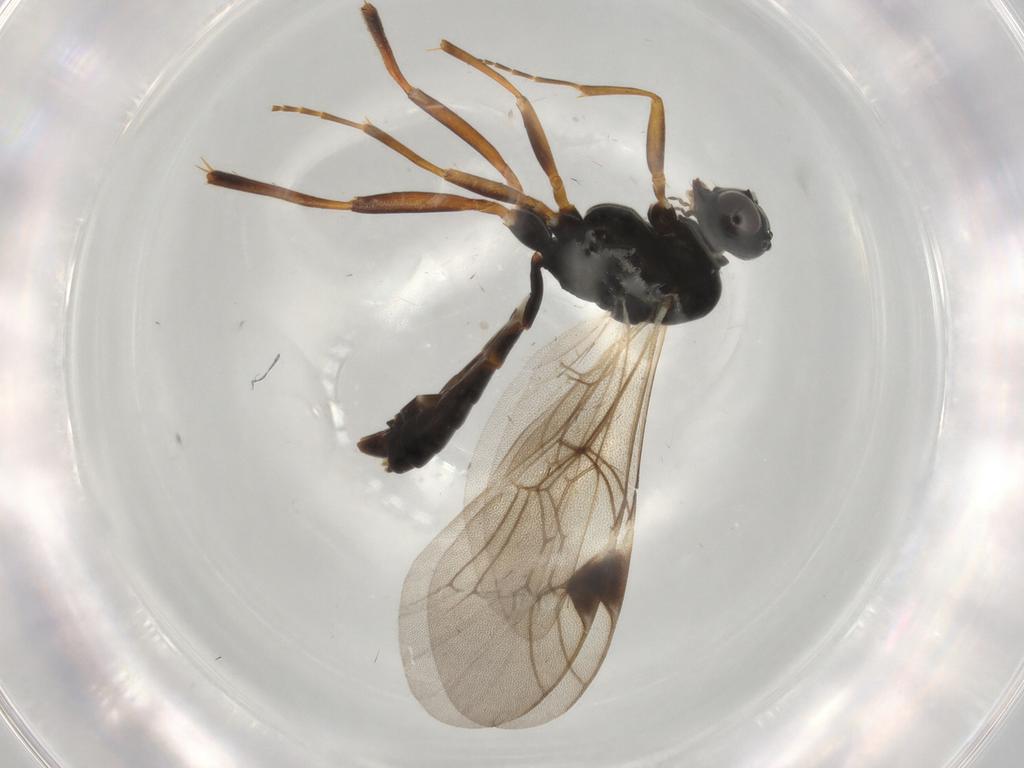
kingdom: Animalia
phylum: Arthropoda
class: Insecta
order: Hymenoptera
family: Ichneumonidae
